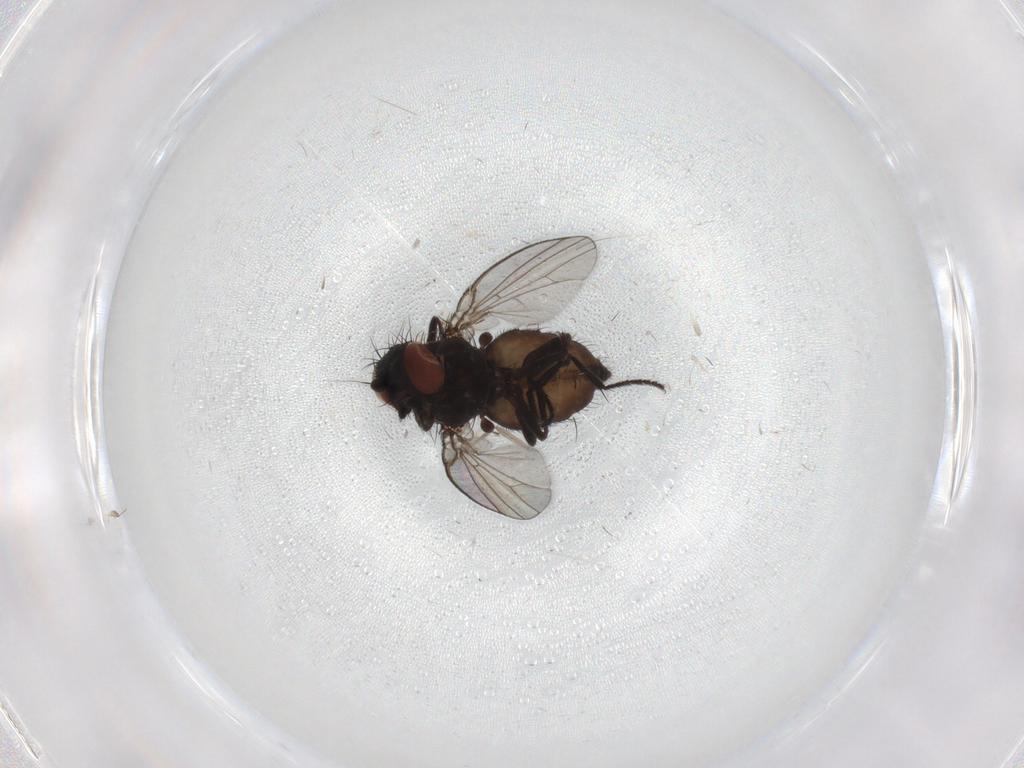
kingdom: Animalia
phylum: Arthropoda
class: Insecta
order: Diptera
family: Milichiidae
